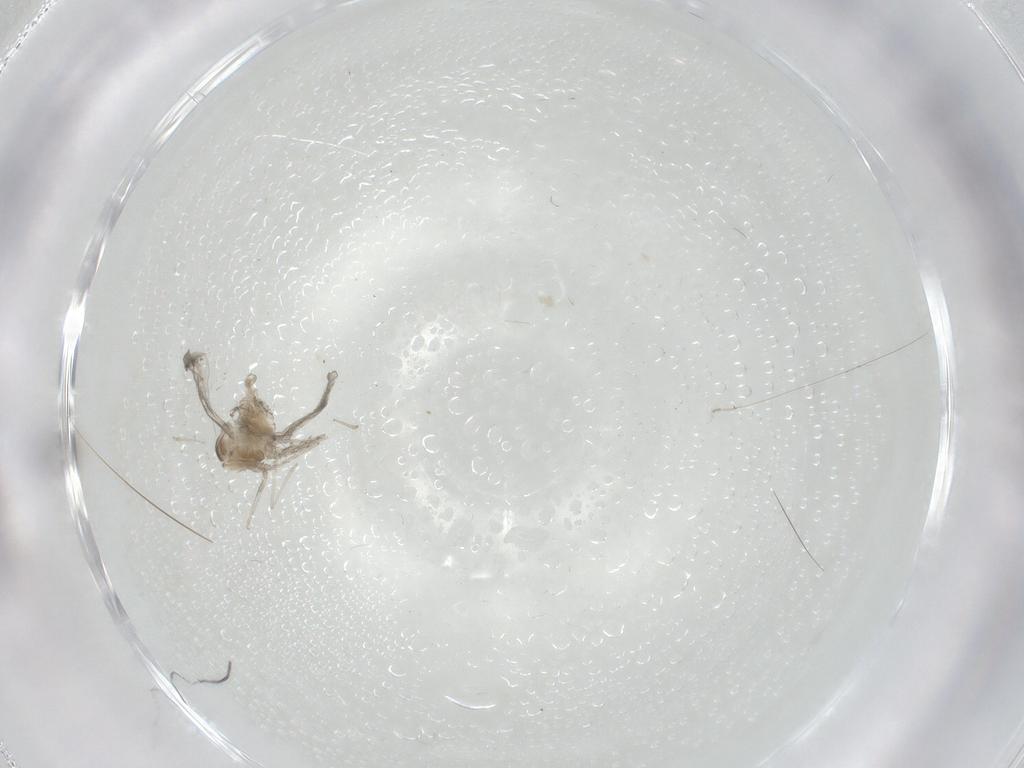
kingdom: Animalia
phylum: Arthropoda
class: Insecta
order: Diptera
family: Cecidomyiidae
